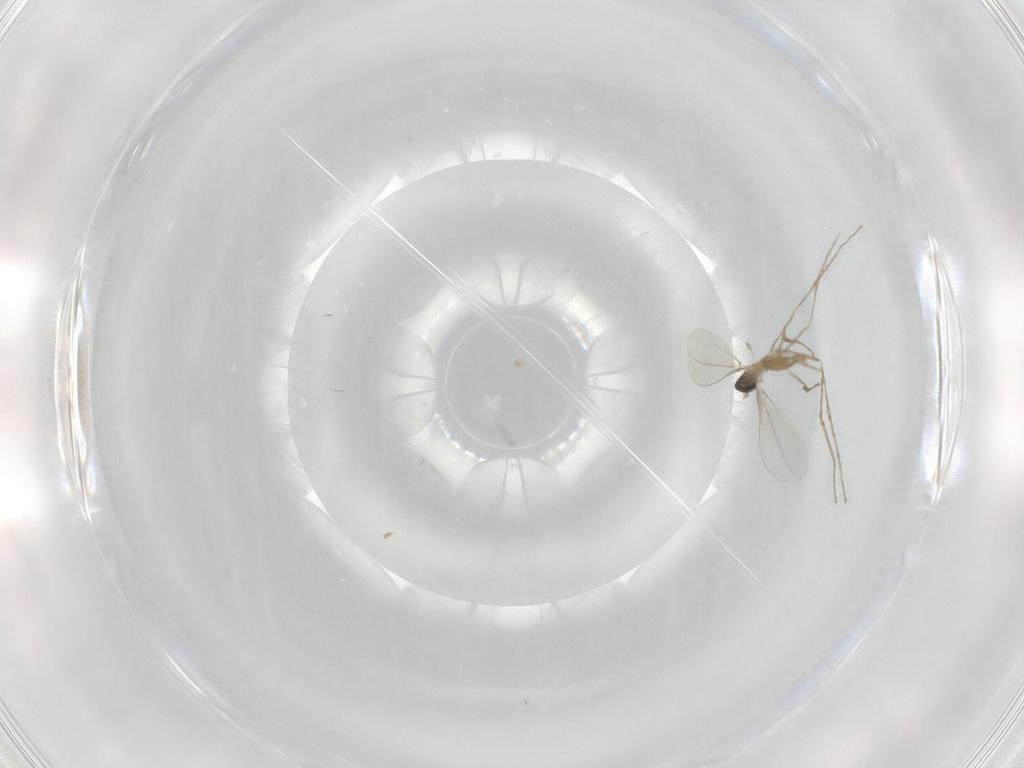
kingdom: Animalia
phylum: Arthropoda
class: Insecta
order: Diptera
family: Cecidomyiidae
